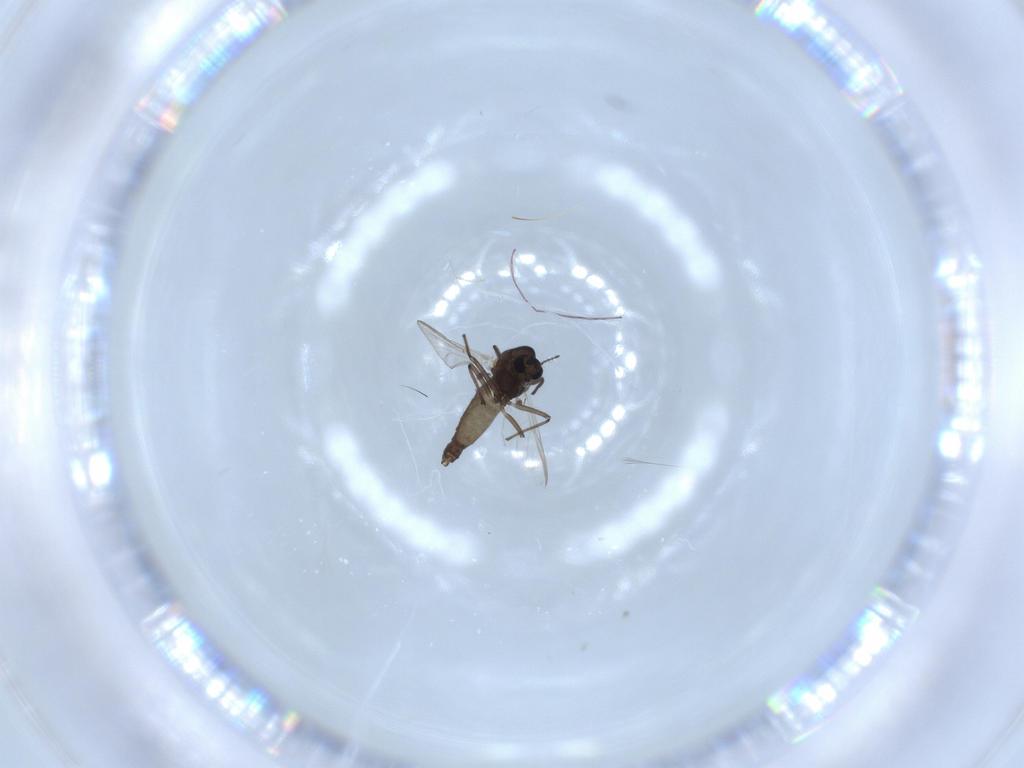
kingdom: Animalia
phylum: Arthropoda
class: Insecta
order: Diptera
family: Chironomidae
